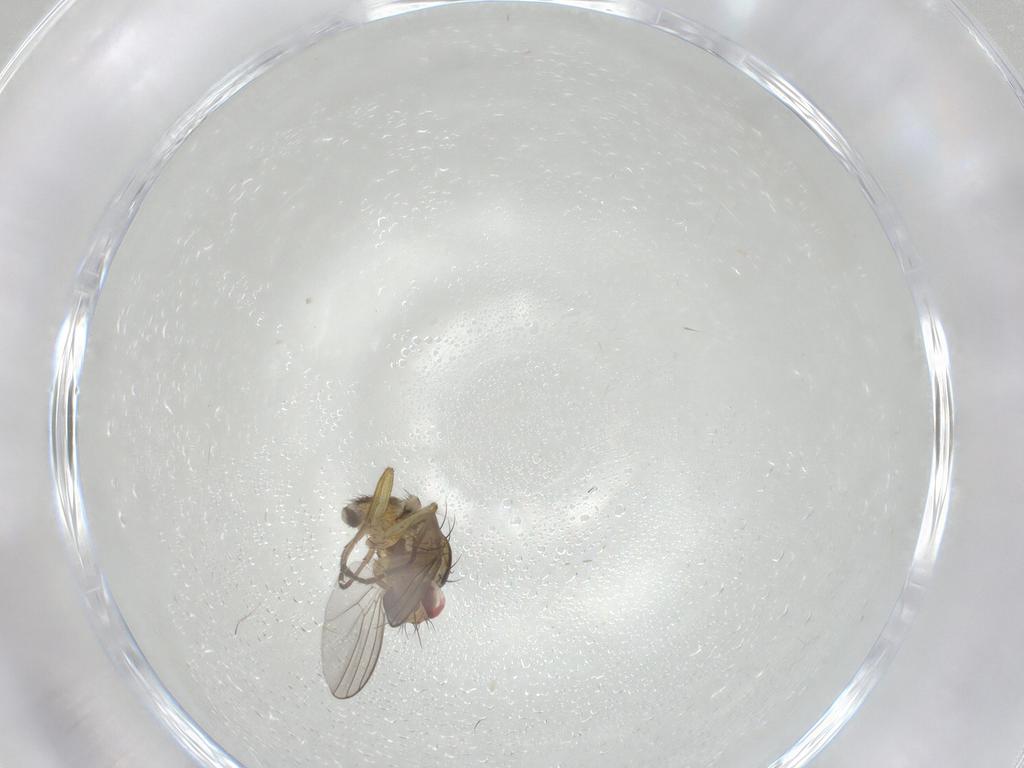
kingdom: Animalia
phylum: Arthropoda
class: Insecta
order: Diptera
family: Agromyzidae
